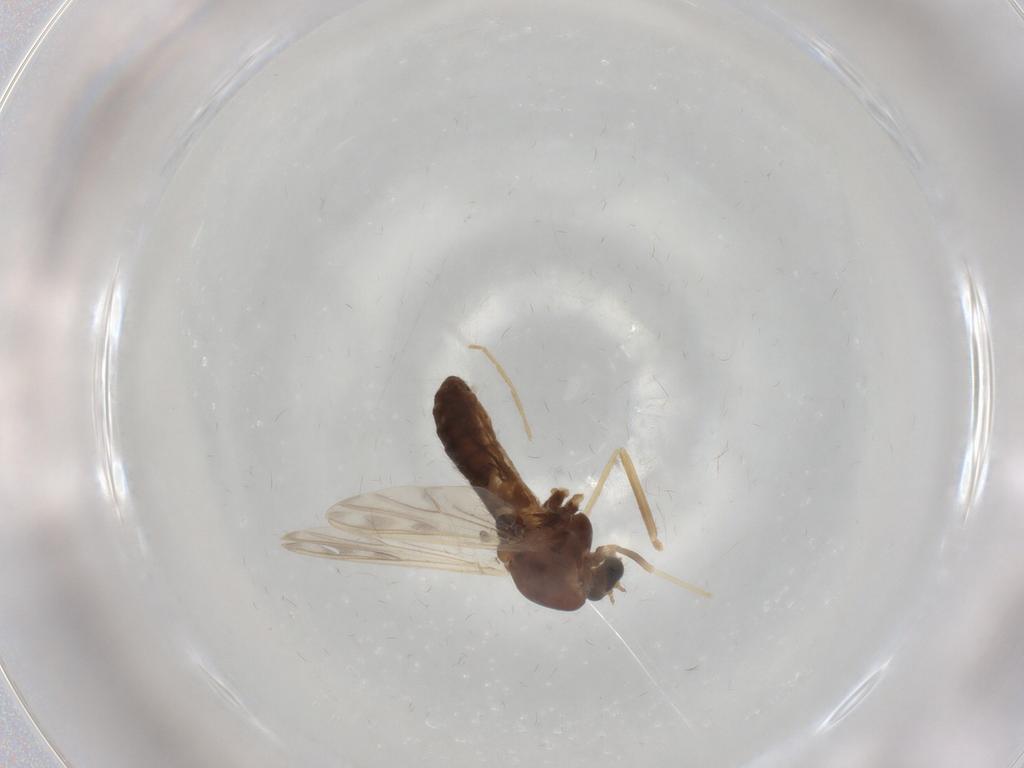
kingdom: Animalia
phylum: Arthropoda
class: Insecta
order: Diptera
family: Chironomidae
